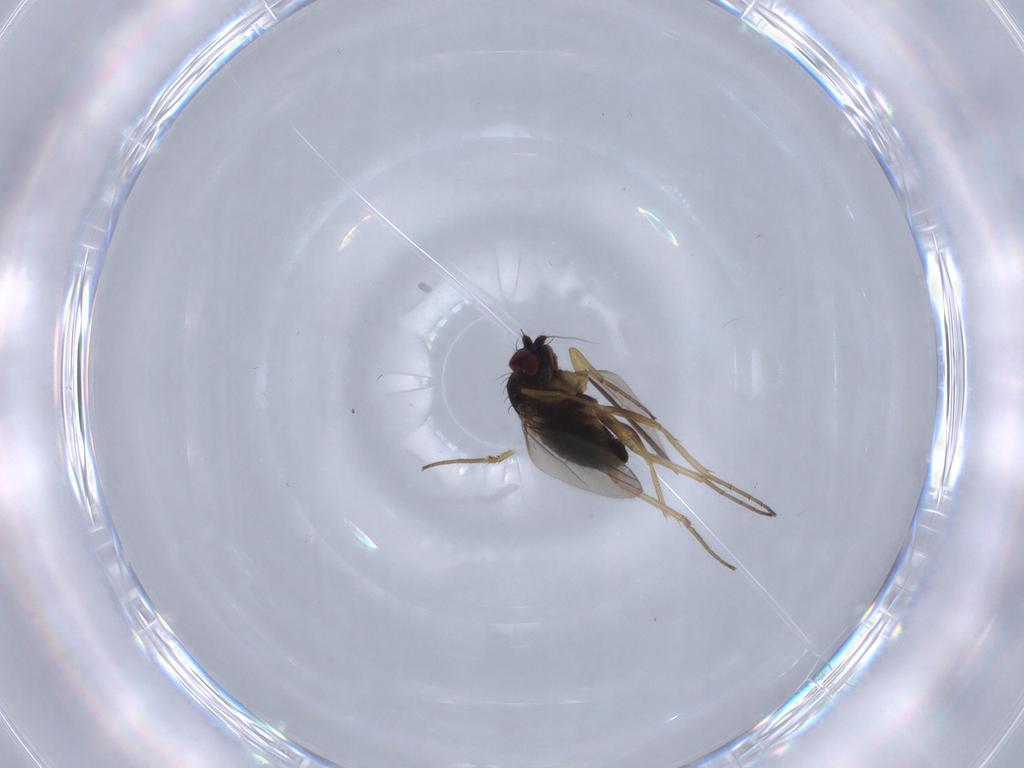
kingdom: Animalia
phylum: Arthropoda
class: Insecta
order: Diptera
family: Dolichopodidae
